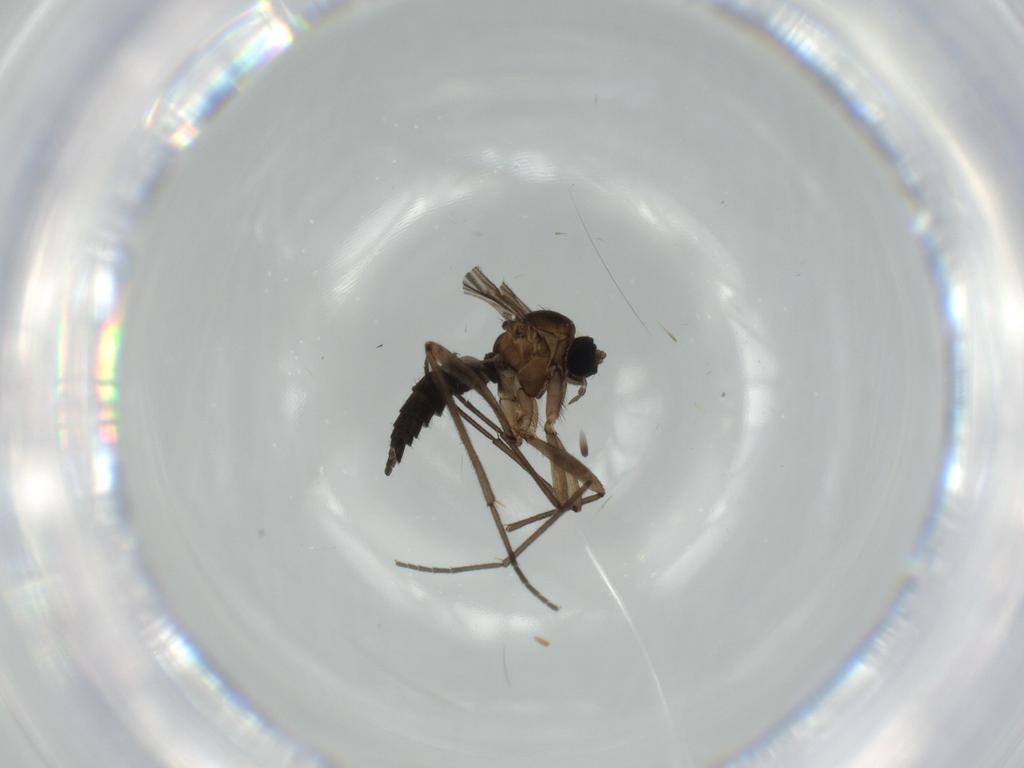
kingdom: Animalia
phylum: Arthropoda
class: Insecta
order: Diptera
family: Sciaridae
